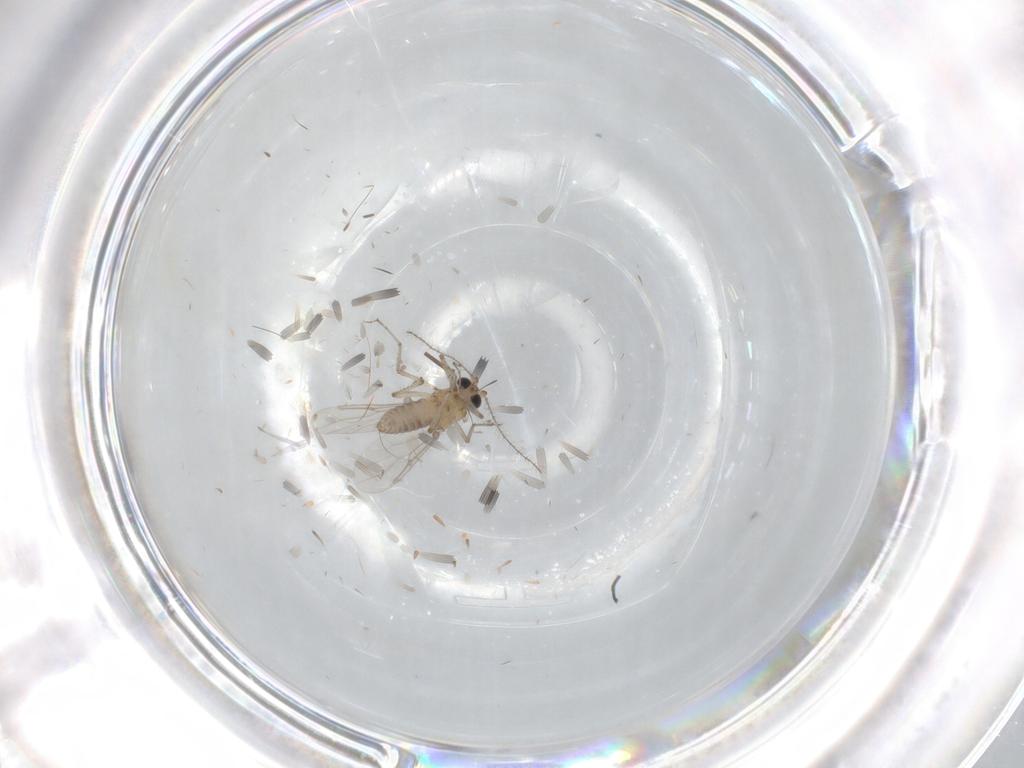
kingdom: Animalia
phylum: Arthropoda
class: Insecta
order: Diptera
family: Ceratopogonidae
